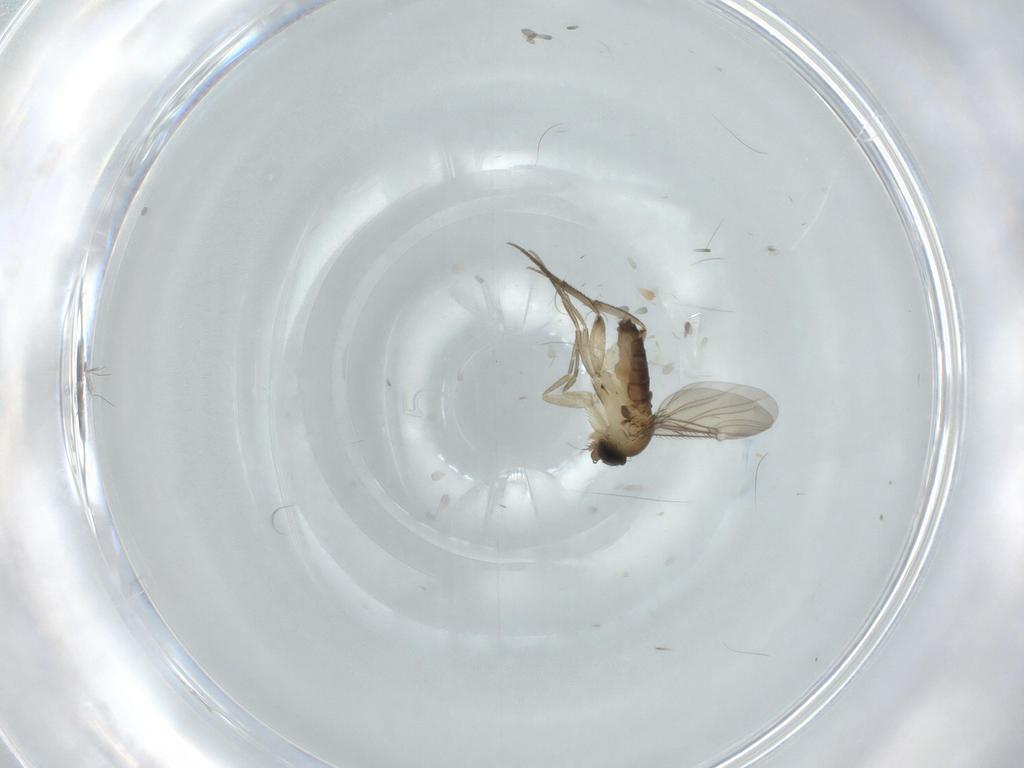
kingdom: Animalia
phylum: Arthropoda
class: Insecta
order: Diptera
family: Phoridae
